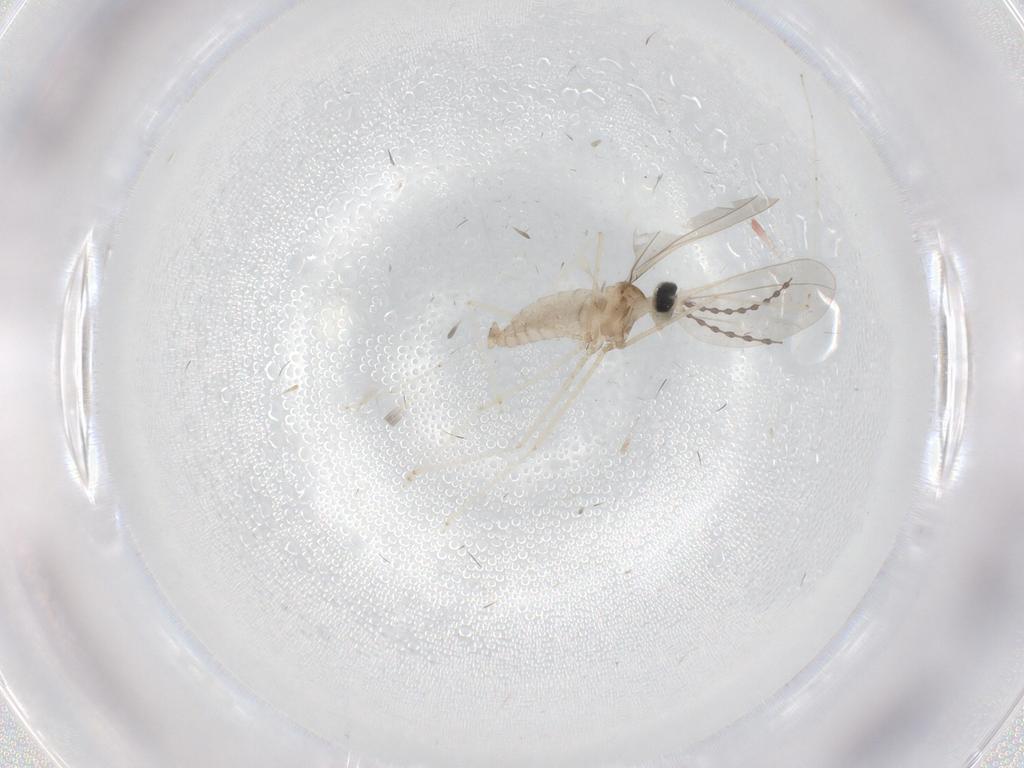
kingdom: Animalia
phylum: Arthropoda
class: Insecta
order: Diptera
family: Cecidomyiidae
